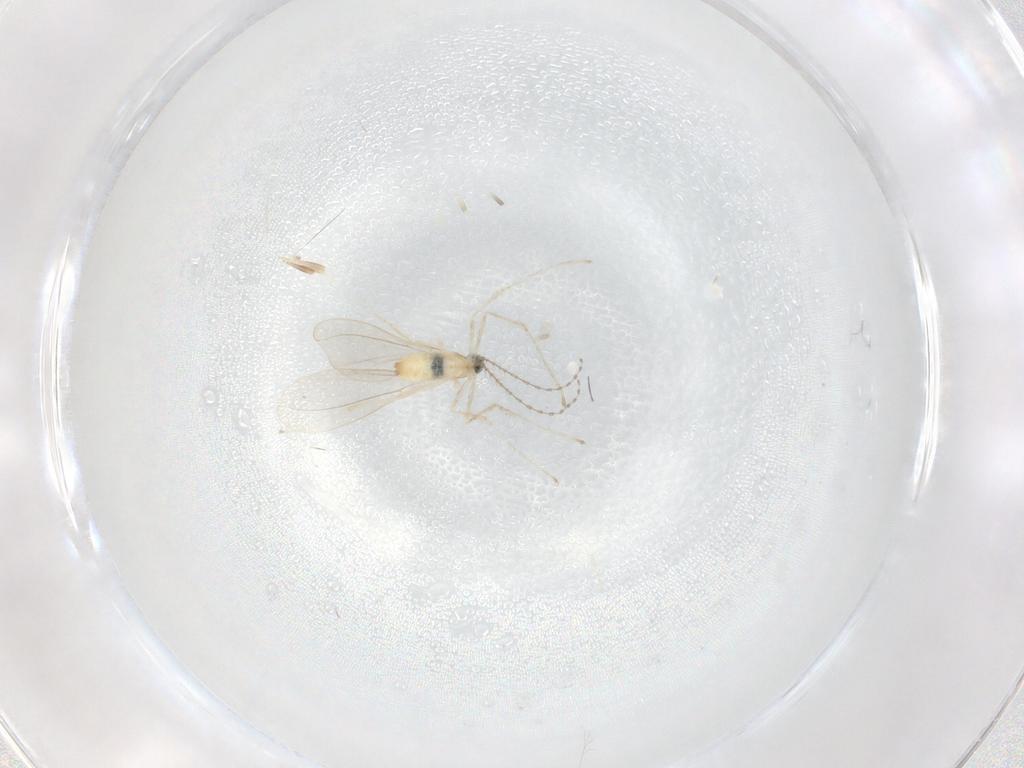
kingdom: Animalia
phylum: Arthropoda
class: Insecta
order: Diptera
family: Cecidomyiidae
